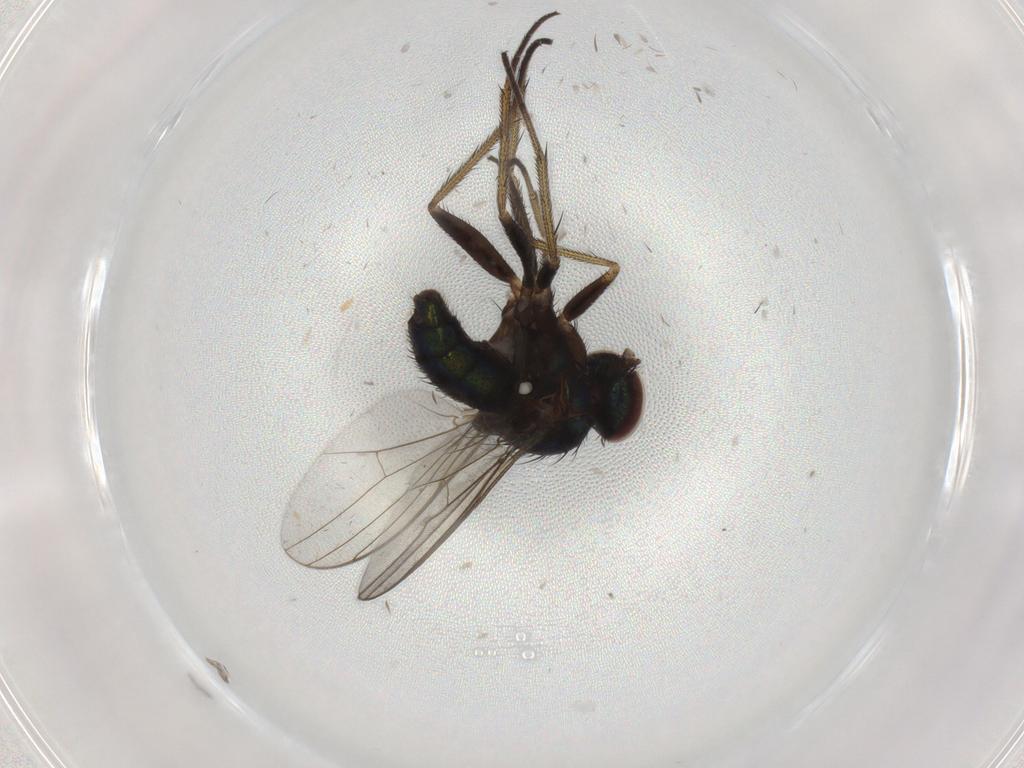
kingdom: Animalia
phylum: Arthropoda
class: Insecta
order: Diptera
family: Dolichopodidae
